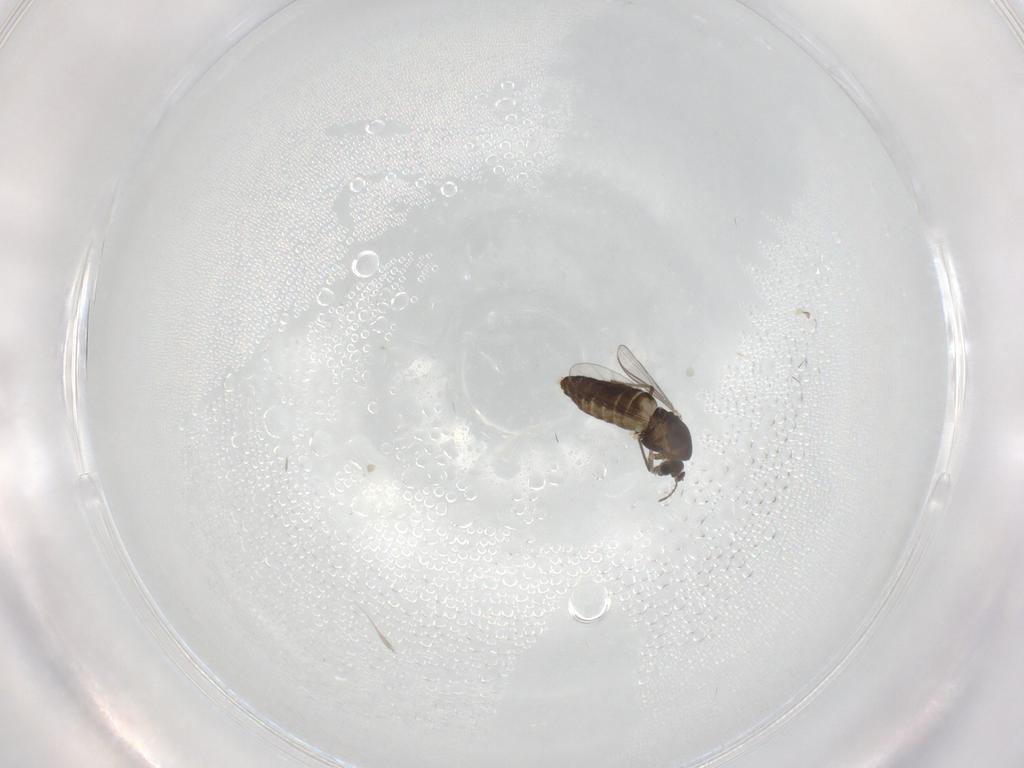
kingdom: Animalia
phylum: Arthropoda
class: Insecta
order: Diptera
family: Chironomidae
